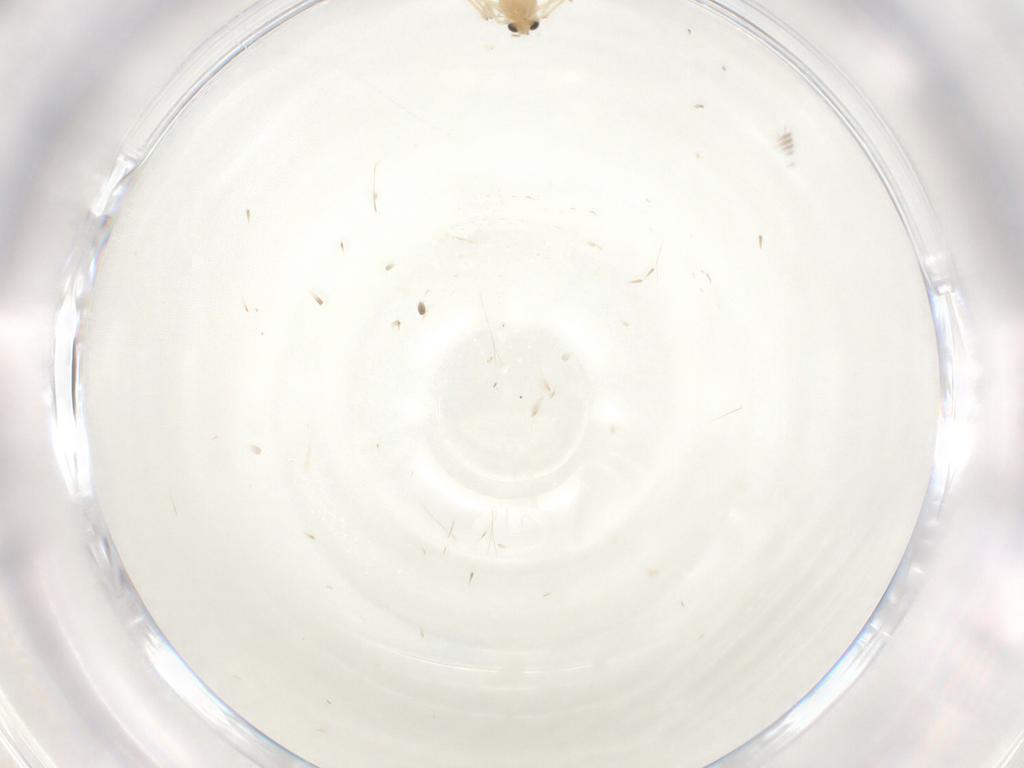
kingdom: Animalia
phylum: Arthropoda
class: Insecta
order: Diptera
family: Chironomidae
